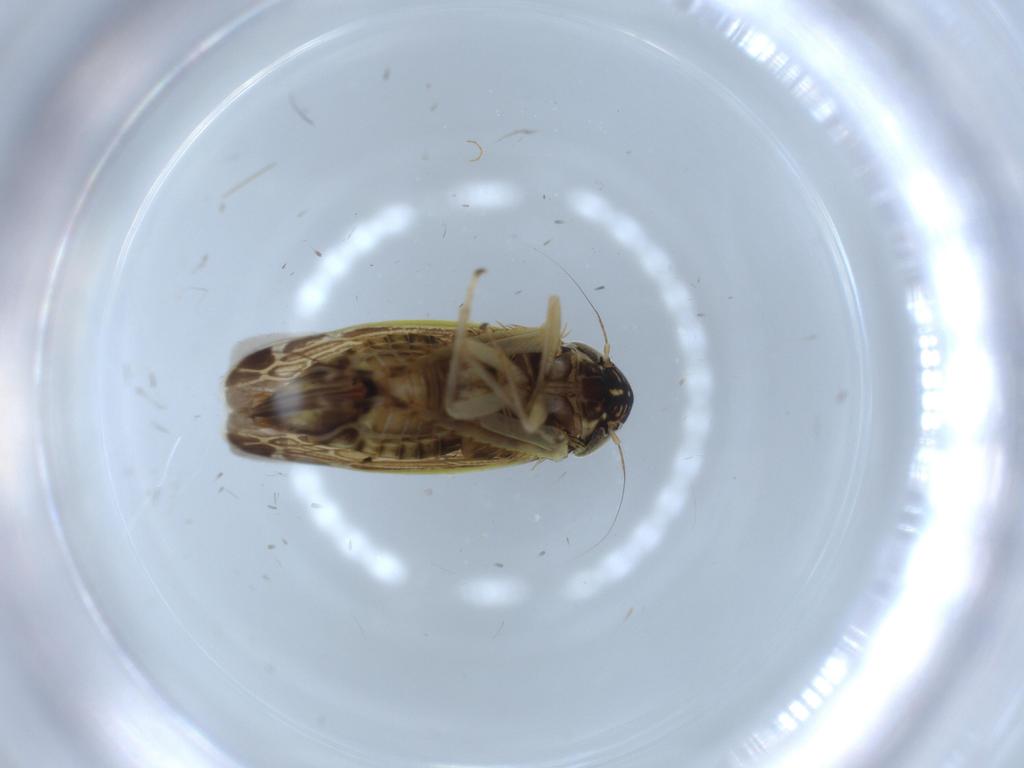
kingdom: Animalia
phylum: Arthropoda
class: Insecta
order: Hemiptera
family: Cicadellidae
